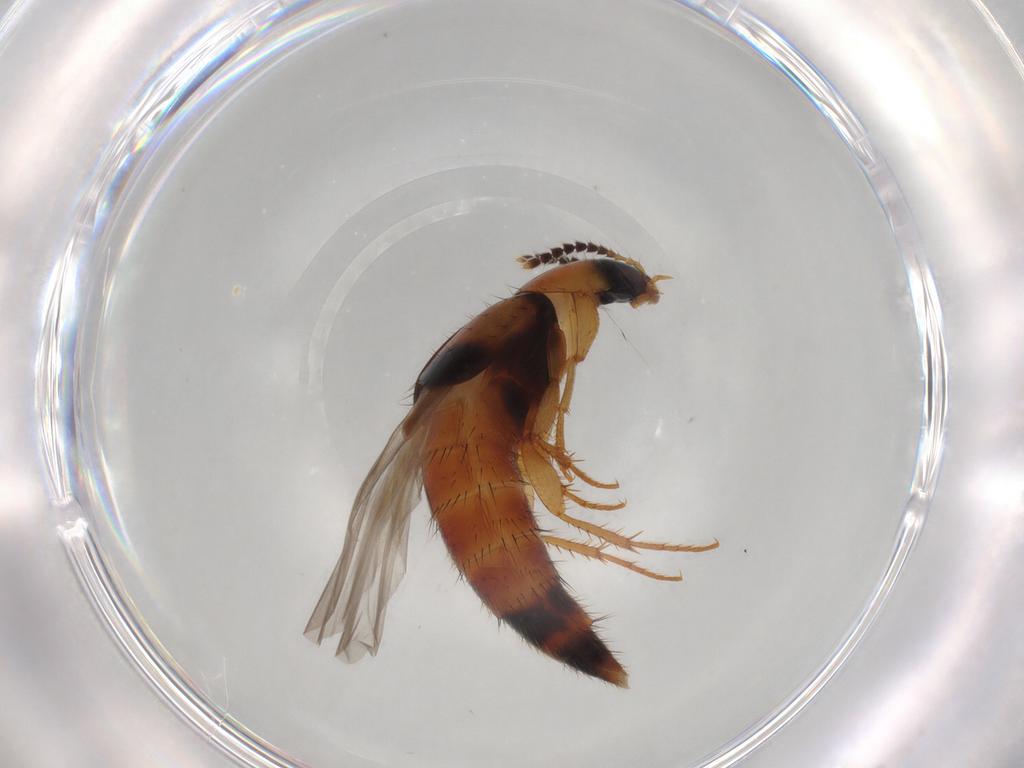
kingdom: Animalia
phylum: Arthropoda
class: Insecta
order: Coleoptera
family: Staphylinidae
